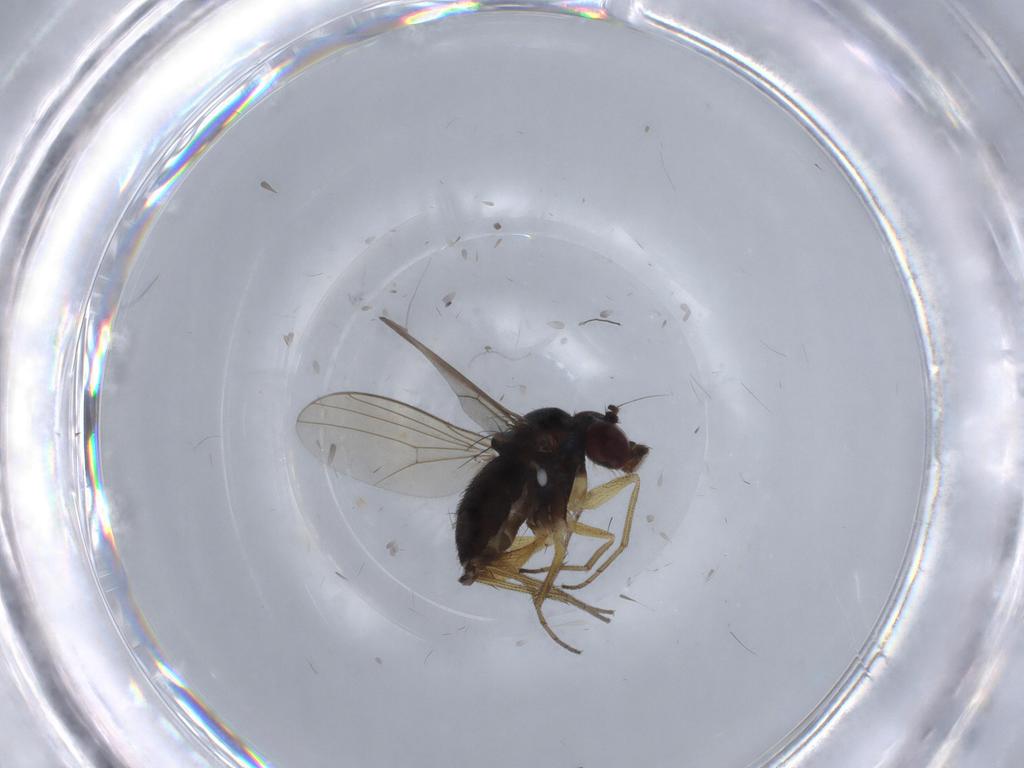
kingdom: Animalia
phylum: Arthropoda
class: Insecta
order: Diptera
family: Dolichopodidae
